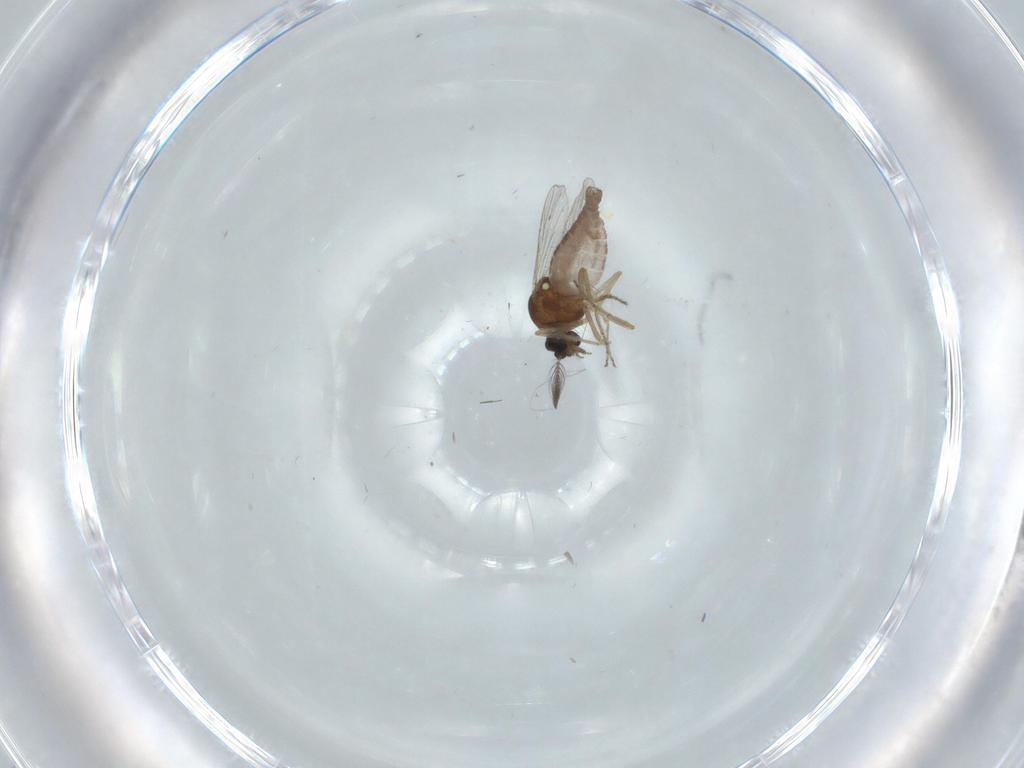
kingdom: Animalia
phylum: Arthropoda
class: Insecta
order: Diptera
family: Ceratopogonidae
